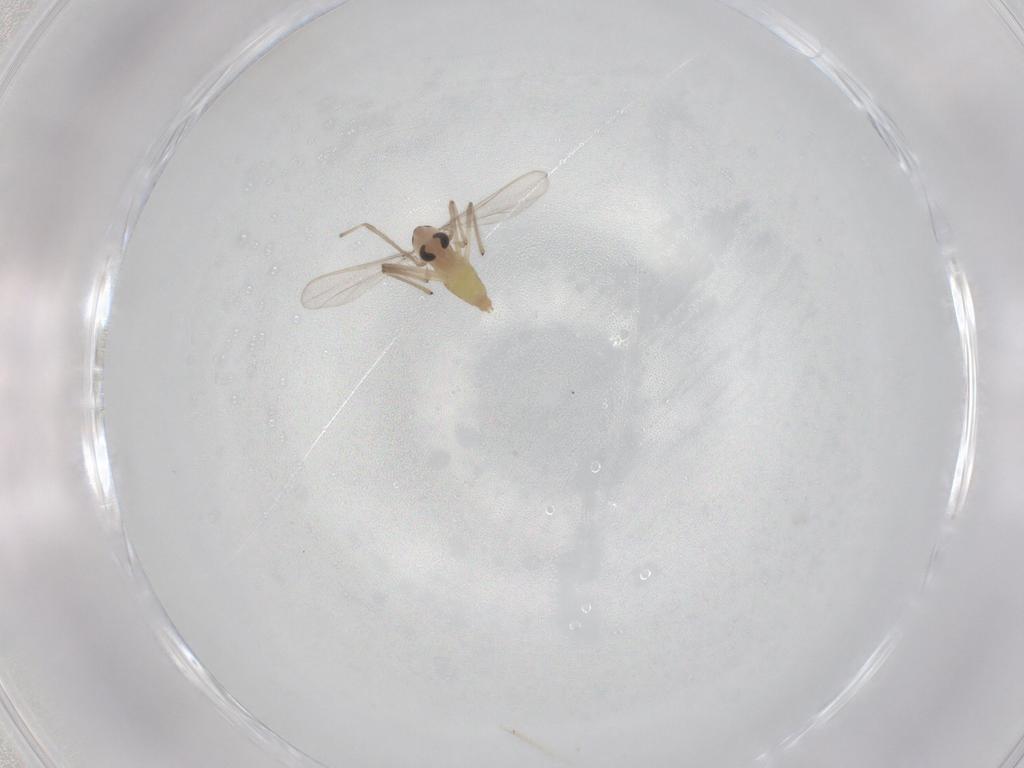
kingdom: Animalia
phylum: Arthropoda
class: Insecta
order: Diptera
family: Chironomidae
